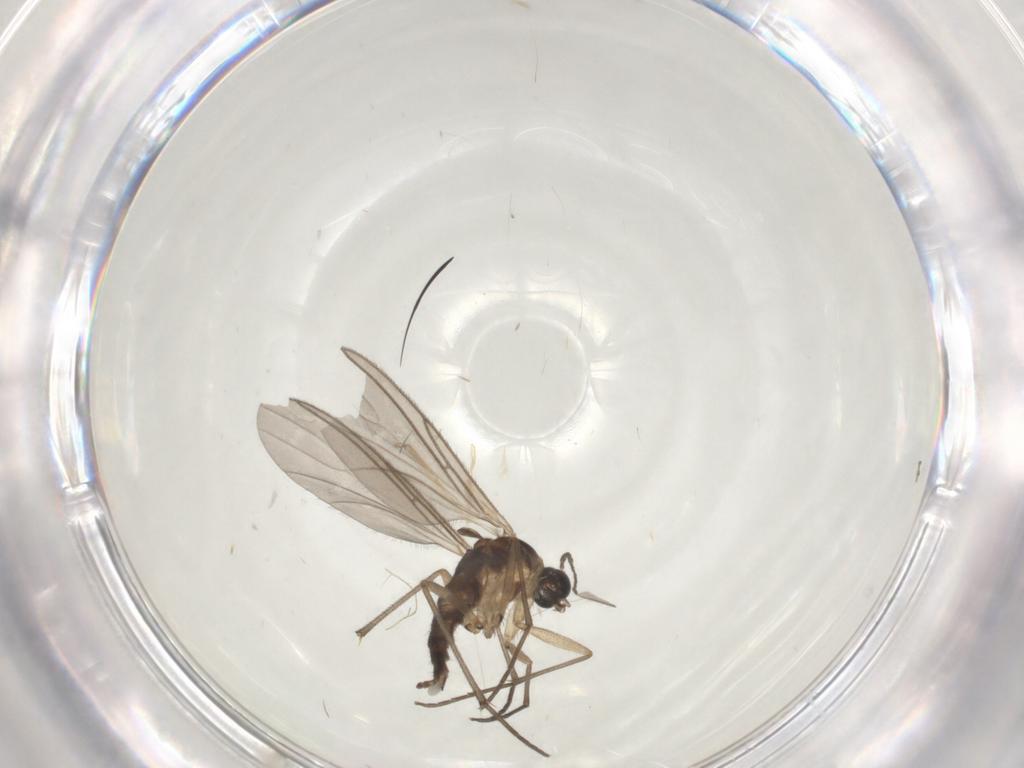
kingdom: Animalia
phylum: Arthropoda
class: Insecta
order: Diptera
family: Sciaridae
